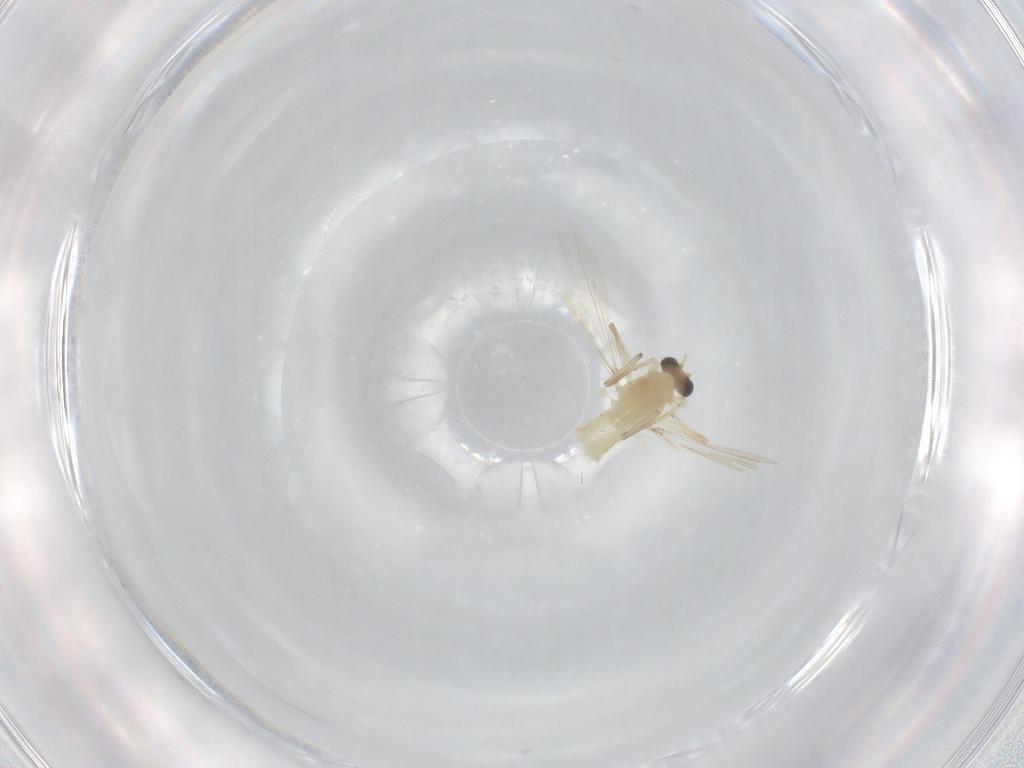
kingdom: Animalia
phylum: Arthropoda
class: Insecta
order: Diptera
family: Chironomidae
